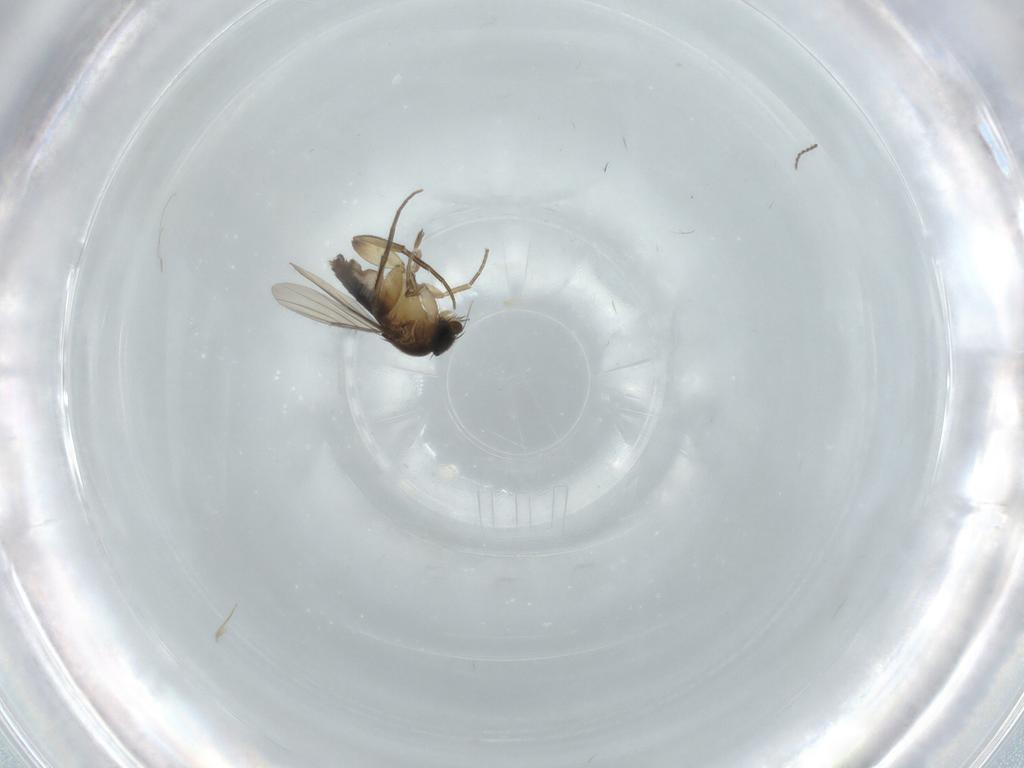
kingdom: Animalia
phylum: Arthropoda
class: Insecta
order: Diptera
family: Phoridae
